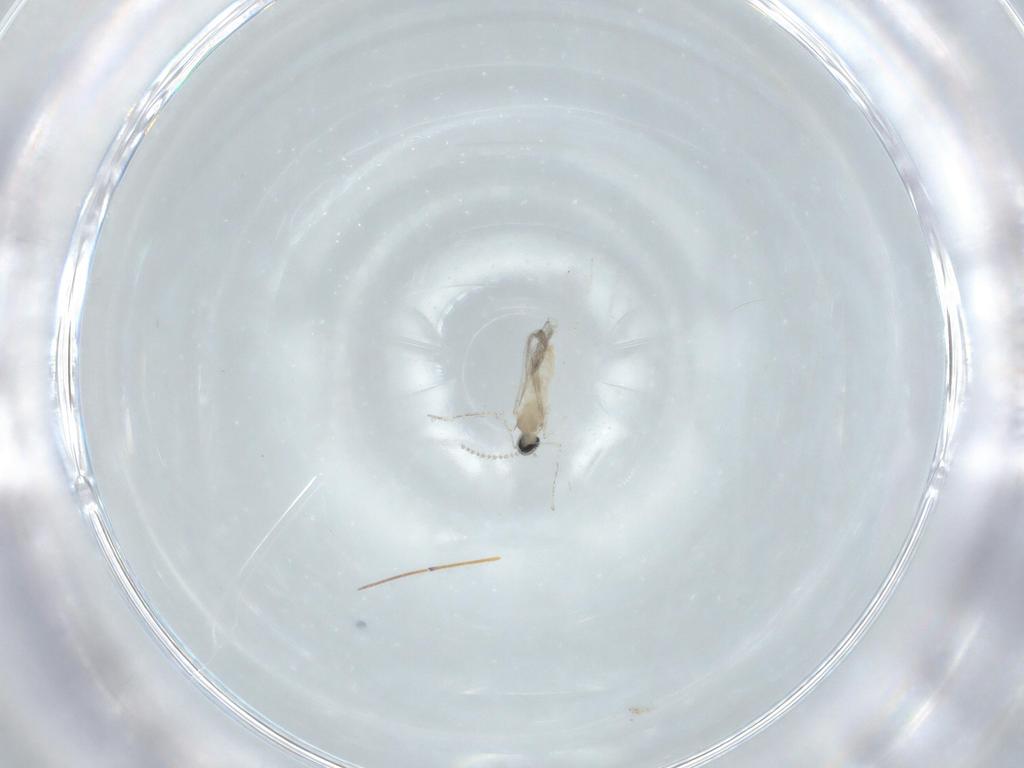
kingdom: Animalia
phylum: Arthropoda
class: Insecta
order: Diptera
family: Cecidomyiidae
